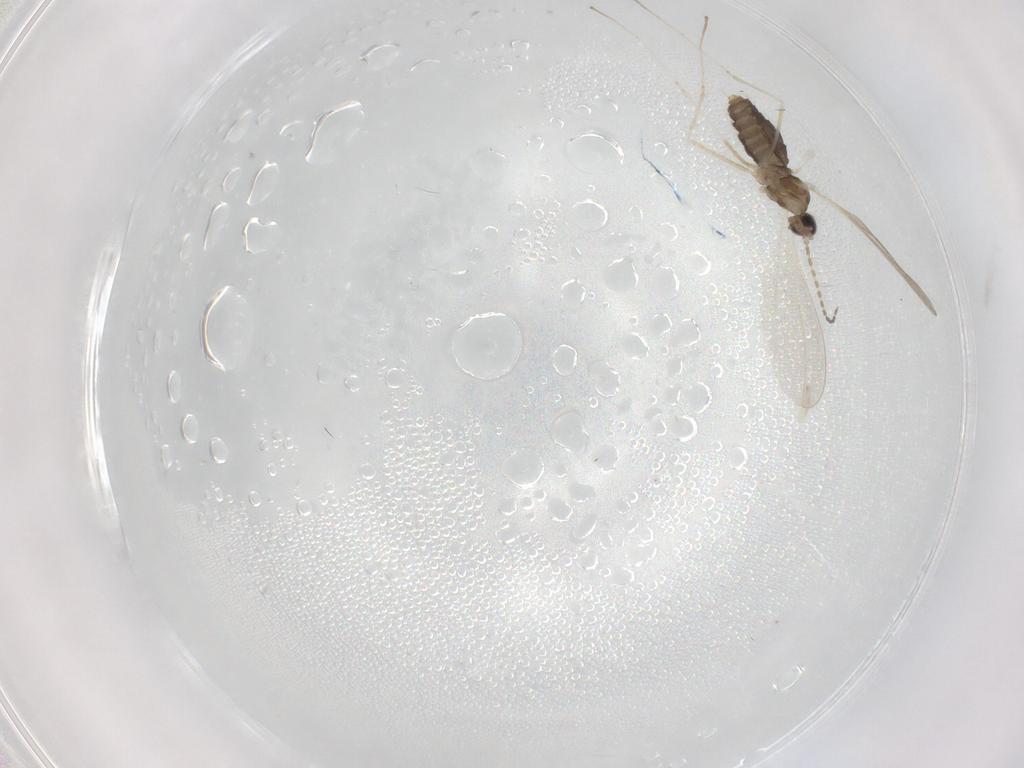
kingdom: Animalia
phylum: Arthropoda
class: Insecta
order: Diptera
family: Cecidomyiidae
